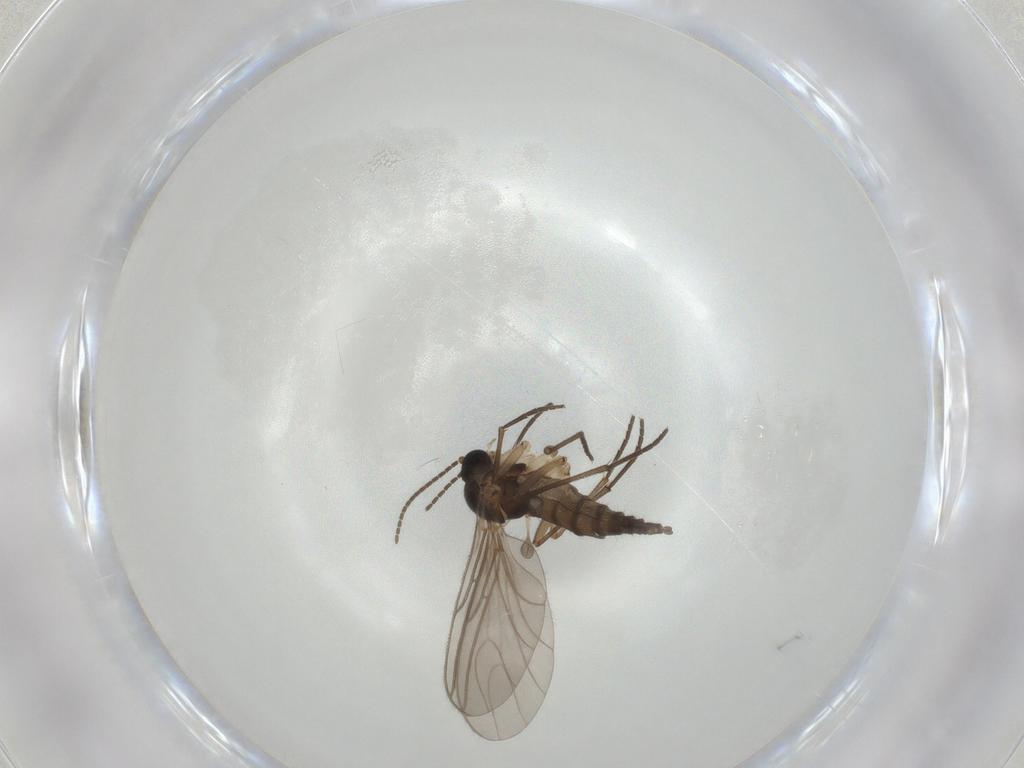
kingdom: Animalia
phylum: Arthropoda
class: Insecta
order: Diptera
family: Sciaridae
